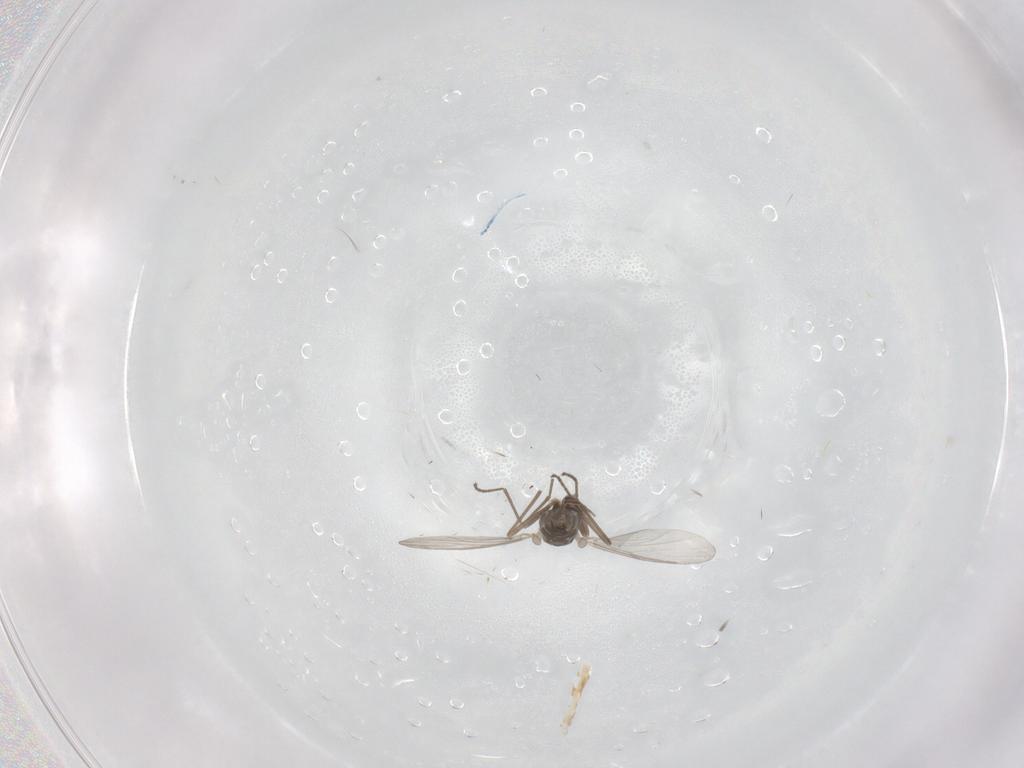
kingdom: Animalia
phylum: Arthropoda
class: Insecta
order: Diptera
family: Cecidomyiidae
